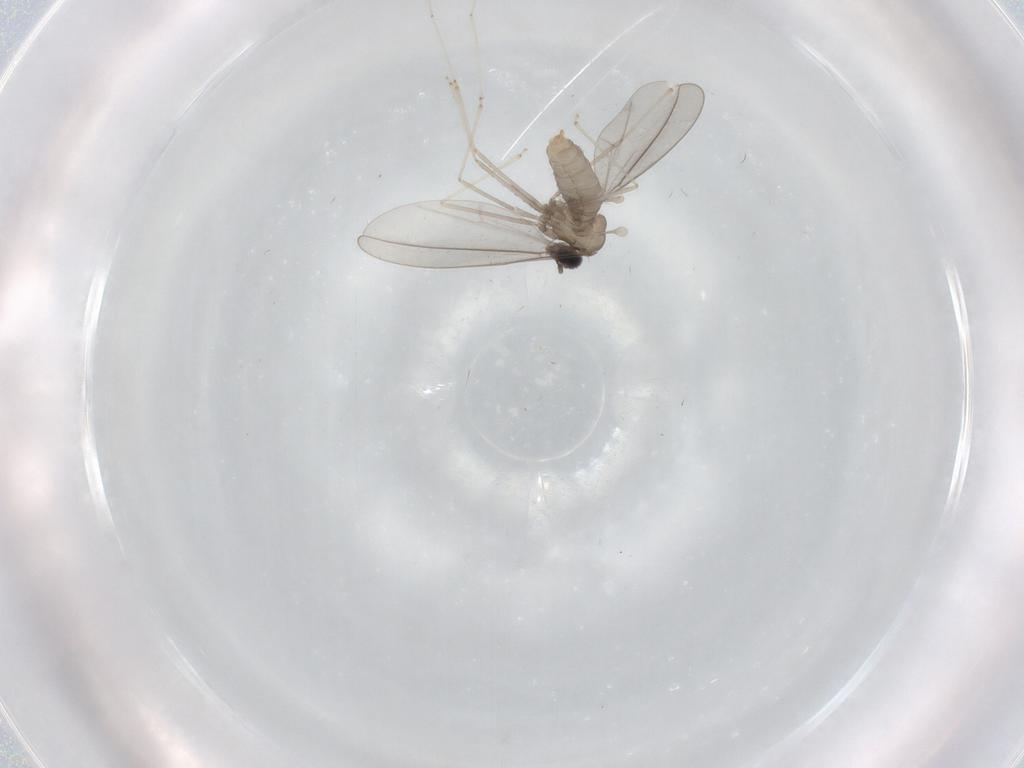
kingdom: Animalia
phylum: Arthropoda
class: Insecta
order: Diptera
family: Cecidomyiidae
